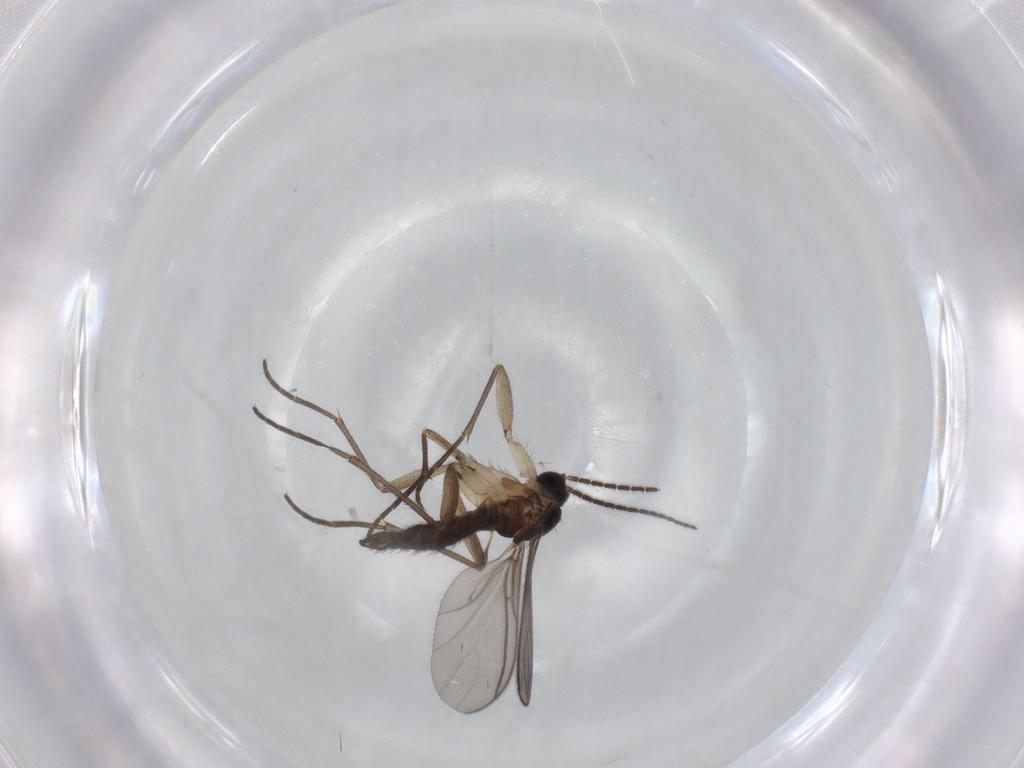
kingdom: Animalia
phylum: Arthropoda
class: Insecta
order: Diptera
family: Sciaridae
